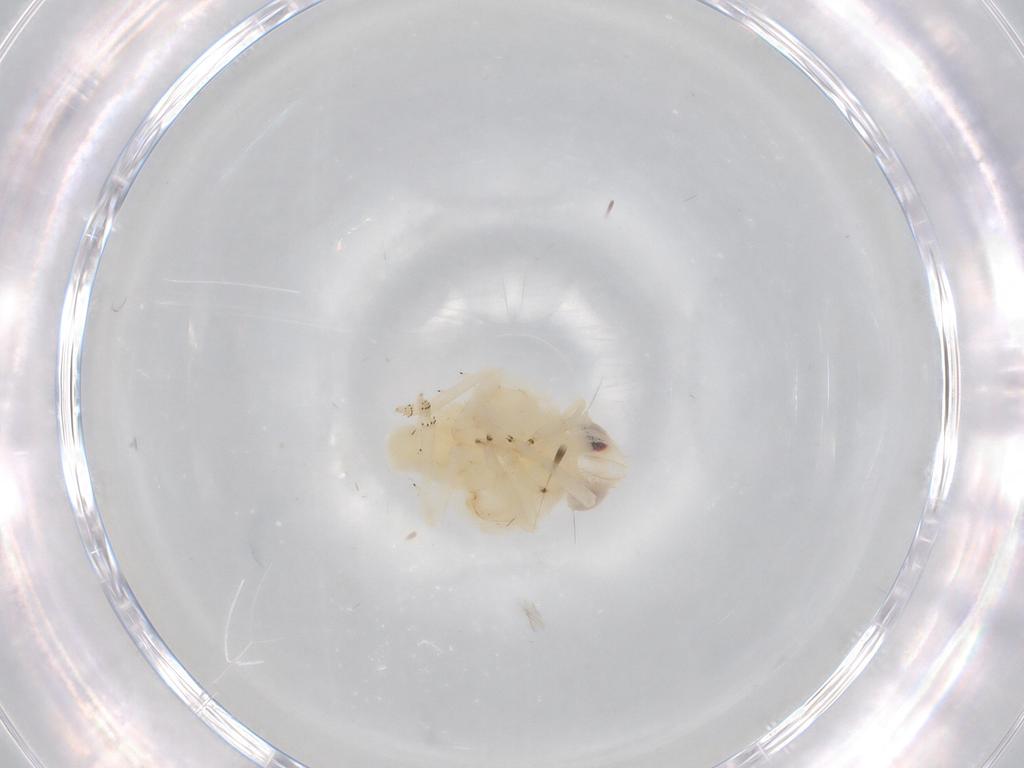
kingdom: Animalia
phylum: Arthropoda
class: Insecta
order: Hemiptera
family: Nogodinidae
